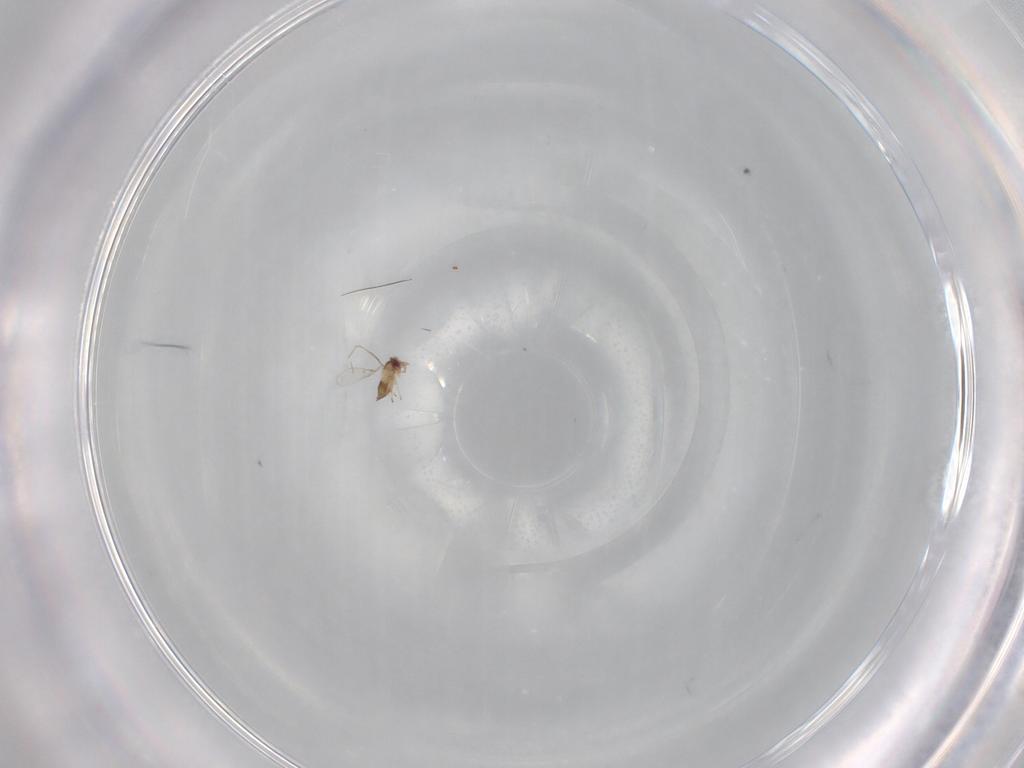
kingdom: Animalia
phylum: Arthropoda
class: Insecta
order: Hymenoptera
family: Trichogrammatidae
